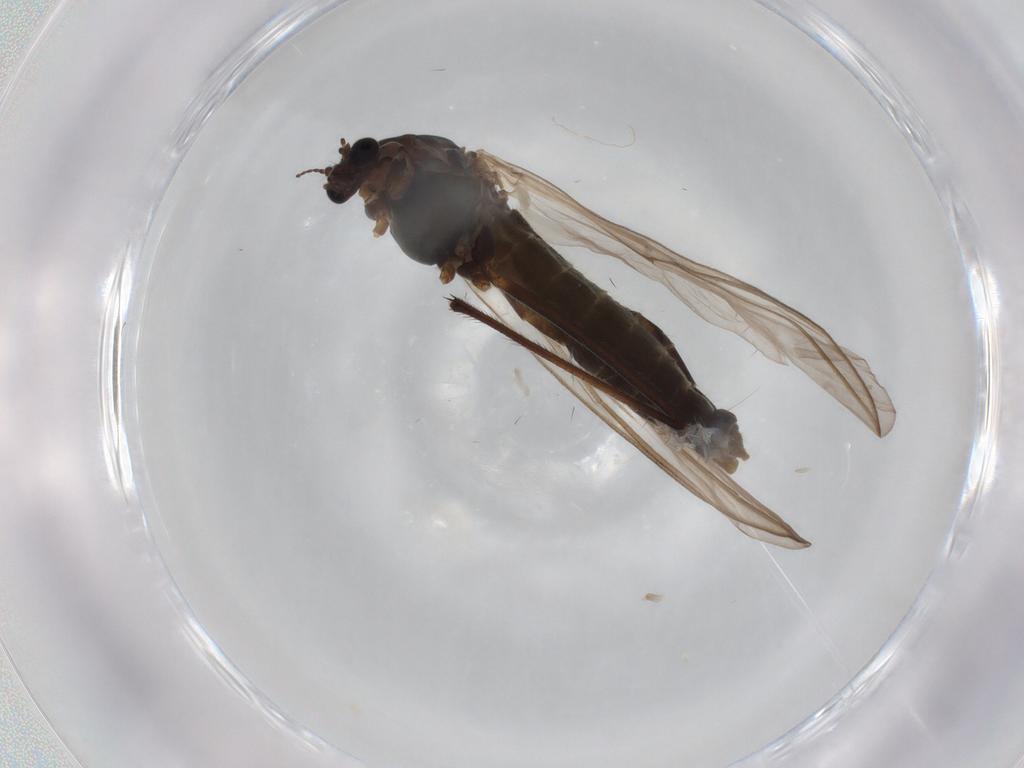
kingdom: Animalia
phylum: Arthropoda
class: Insecta
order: Diptera
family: Chironomidae
